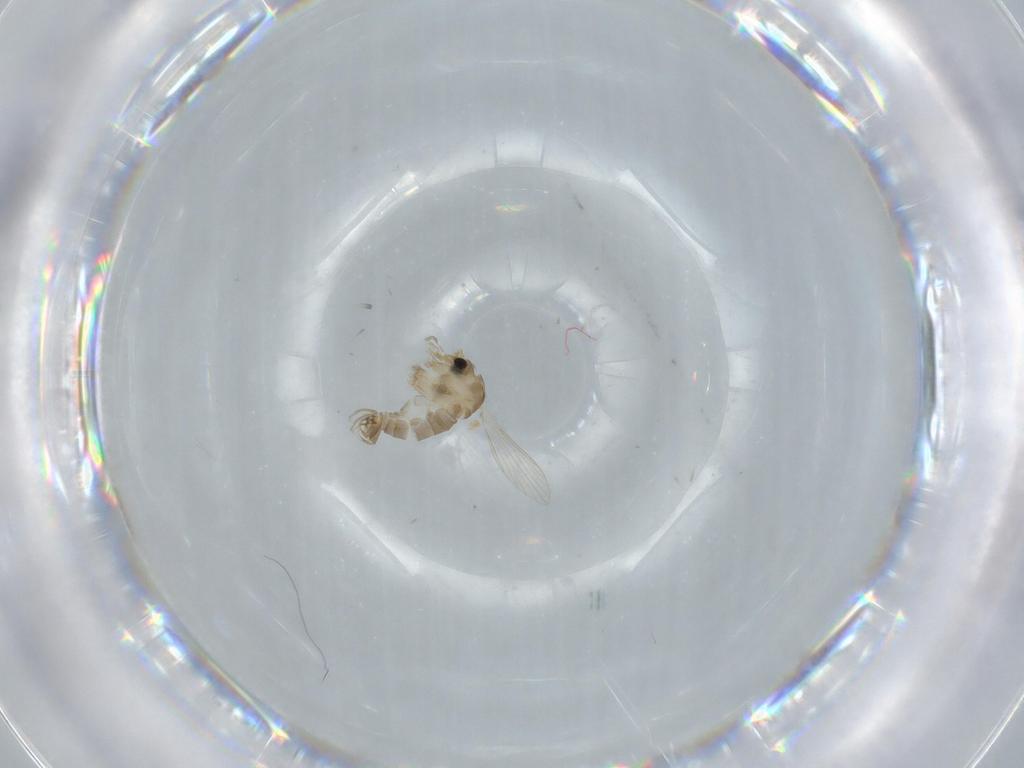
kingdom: Animalia
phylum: Arthropoda
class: Insecta
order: Diptera
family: Psychodidae
